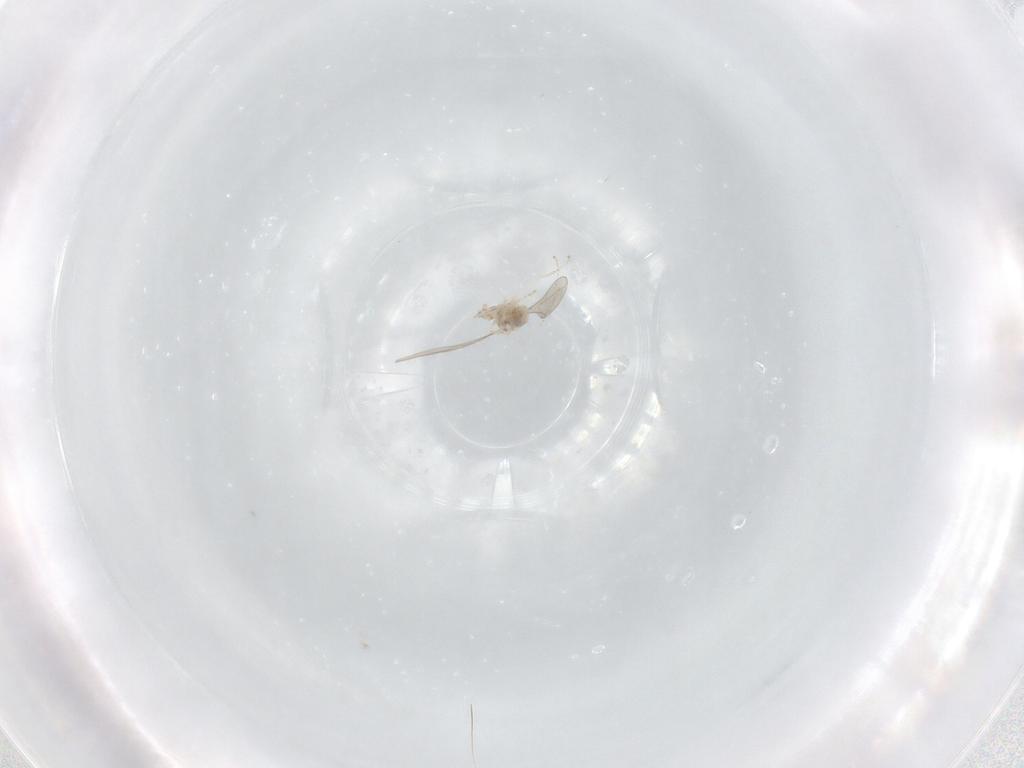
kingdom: Animalia
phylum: Arthropoda
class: Insecta
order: Diptera
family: Cecidomyiidae
